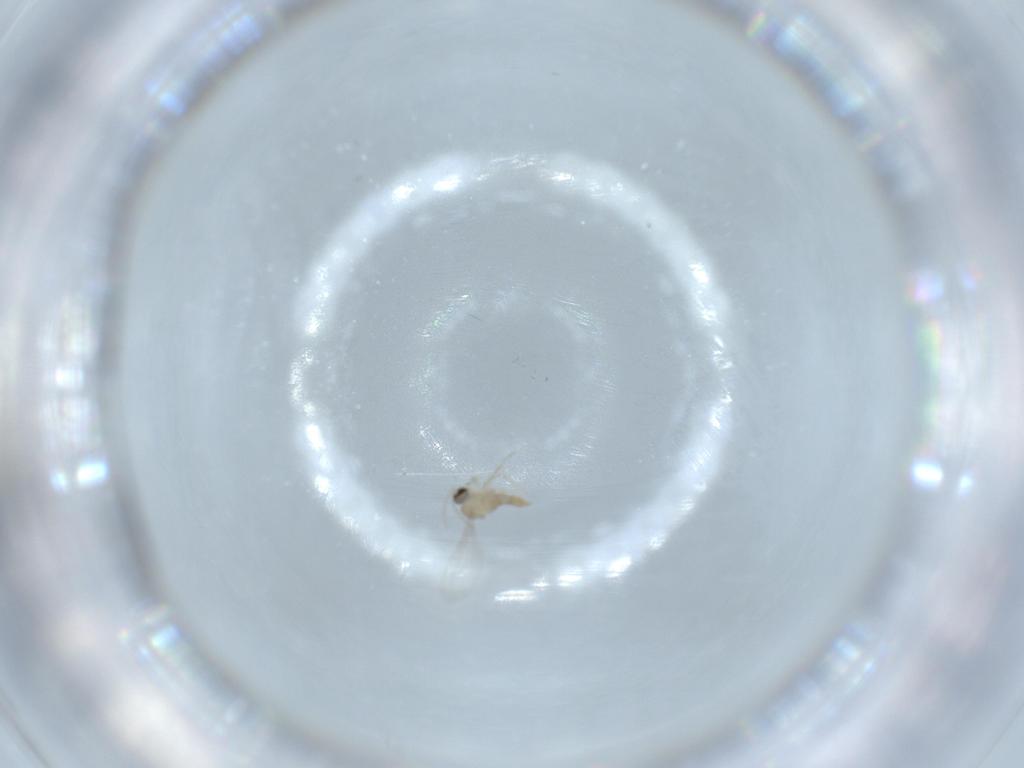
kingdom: Animalia
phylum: Arthropoda
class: Insecta
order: Diptera
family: Cecidomyiidae
